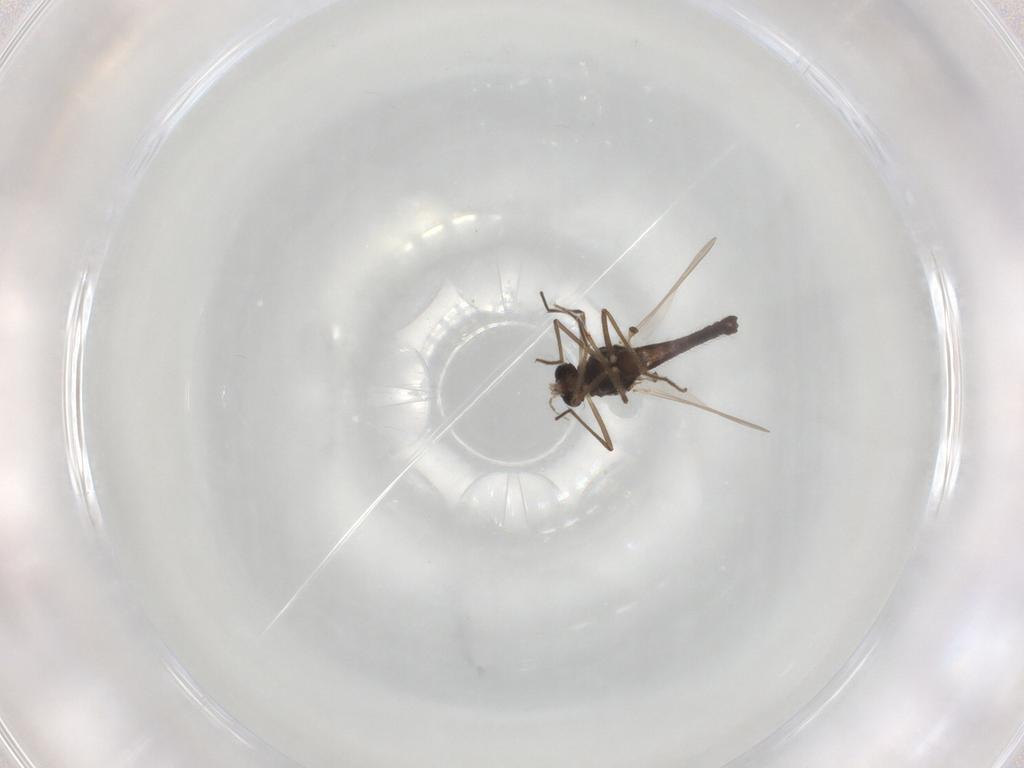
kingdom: Animalia
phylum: Arthropoda
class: Insecta
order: Diptera
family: Chironomidae
